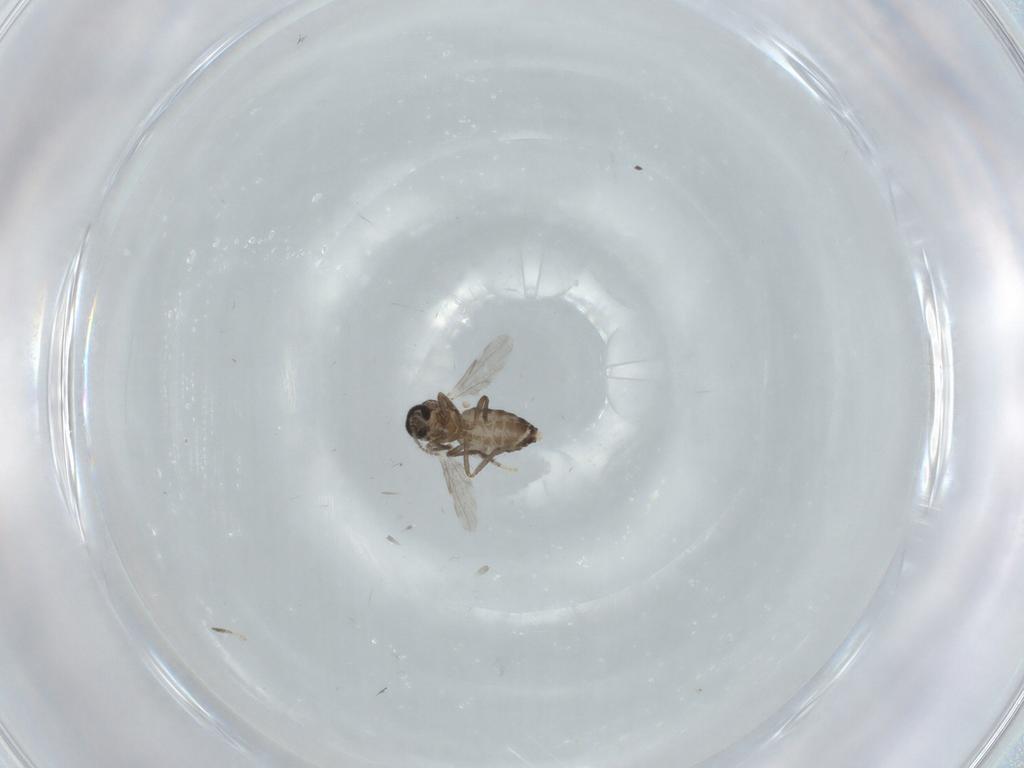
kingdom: Animalia
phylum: Arthropoda
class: Insecta
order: Diptera
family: Ceratopogonidae
